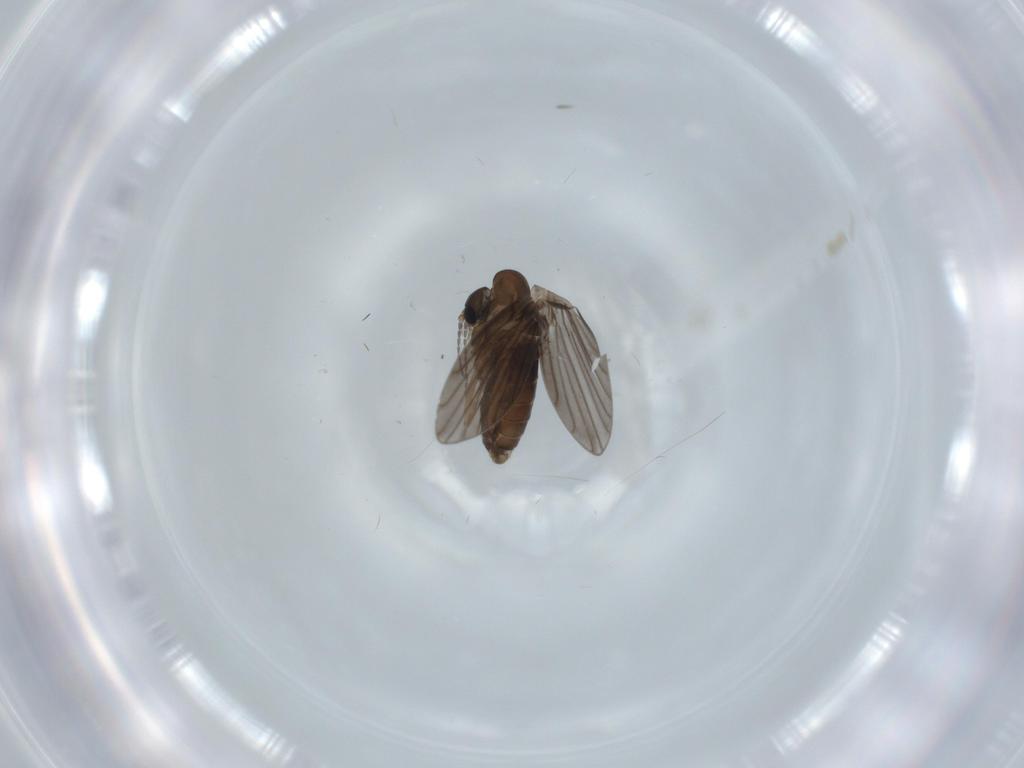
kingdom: Animalia
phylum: Arthropoda
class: Insecta
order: Diptera
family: Psychodidae
